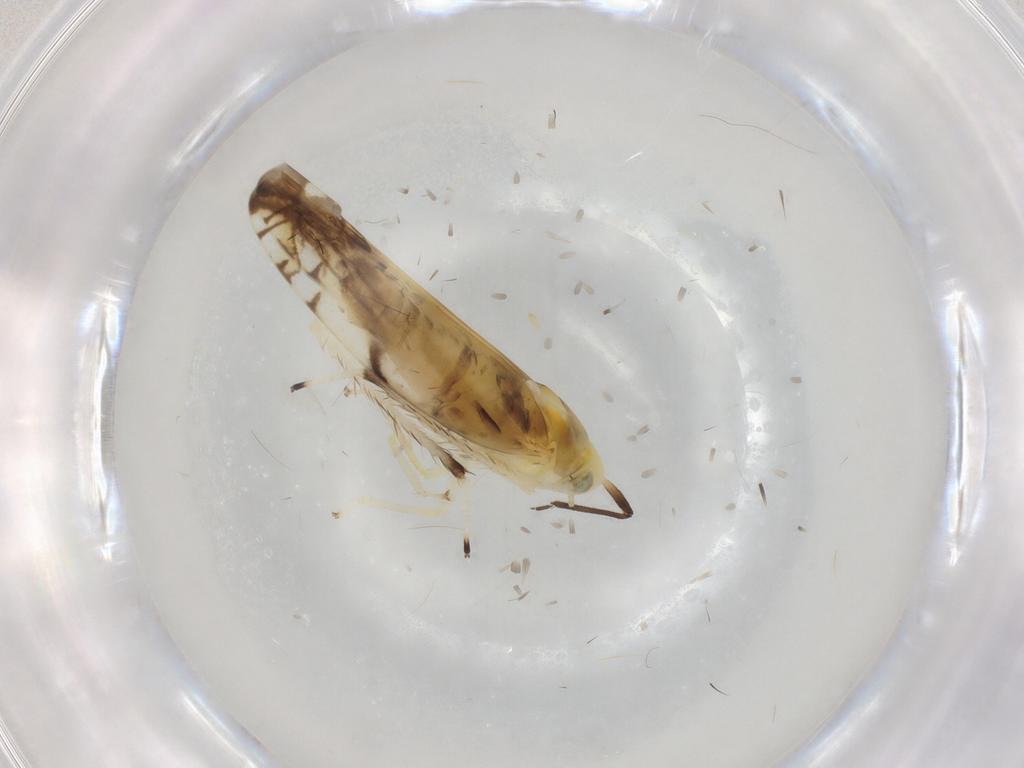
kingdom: Animalia
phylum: Arthropoda
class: Insecta
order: Hemiptera
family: Cicadellidae
